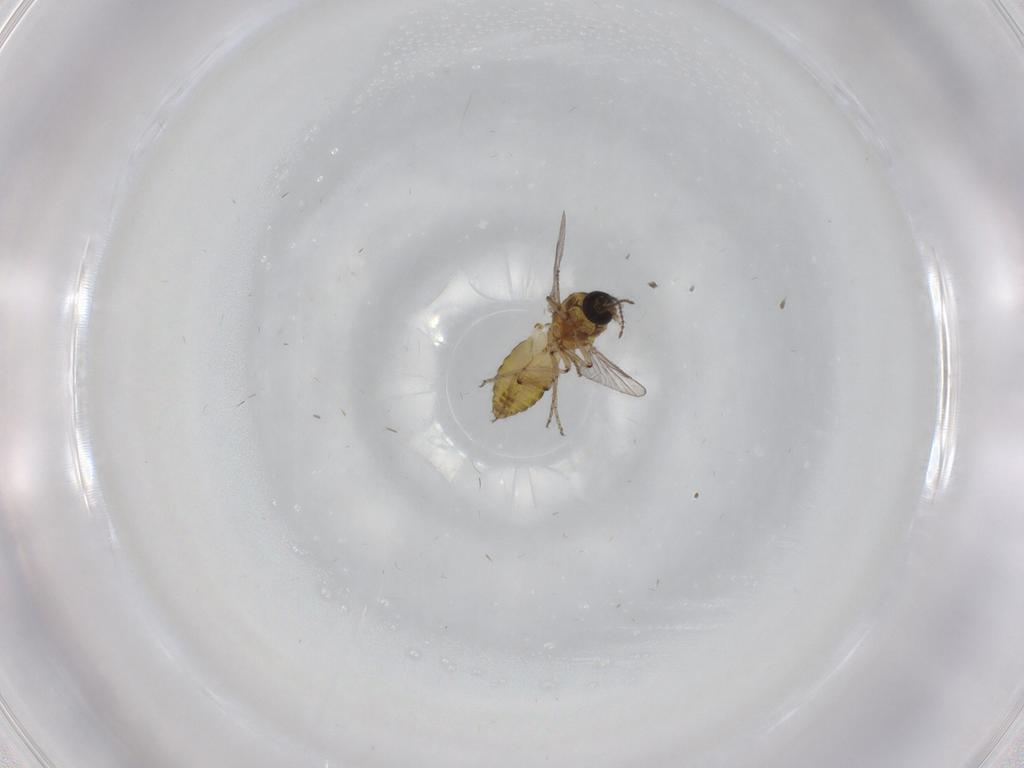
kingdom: Animalia
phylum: Arthropoda
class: Insecta
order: Diptera
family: Ceratopogonidae
